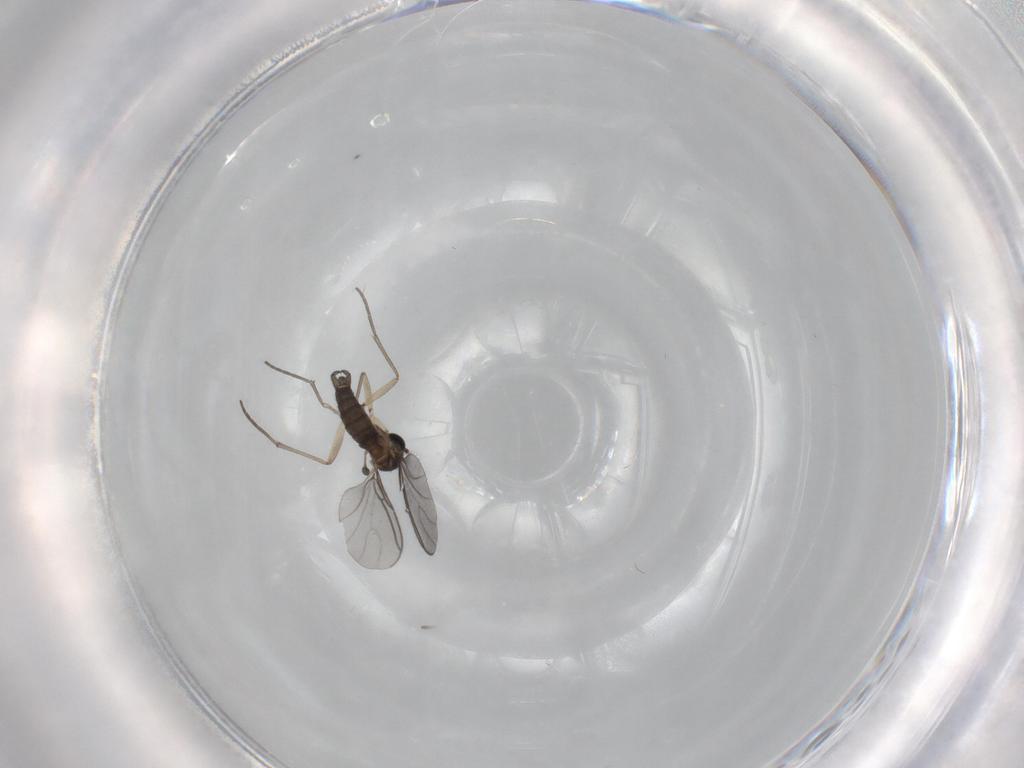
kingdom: Animalia
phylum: Arthropoda
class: Insecta
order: Diptera
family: Sciaridae
